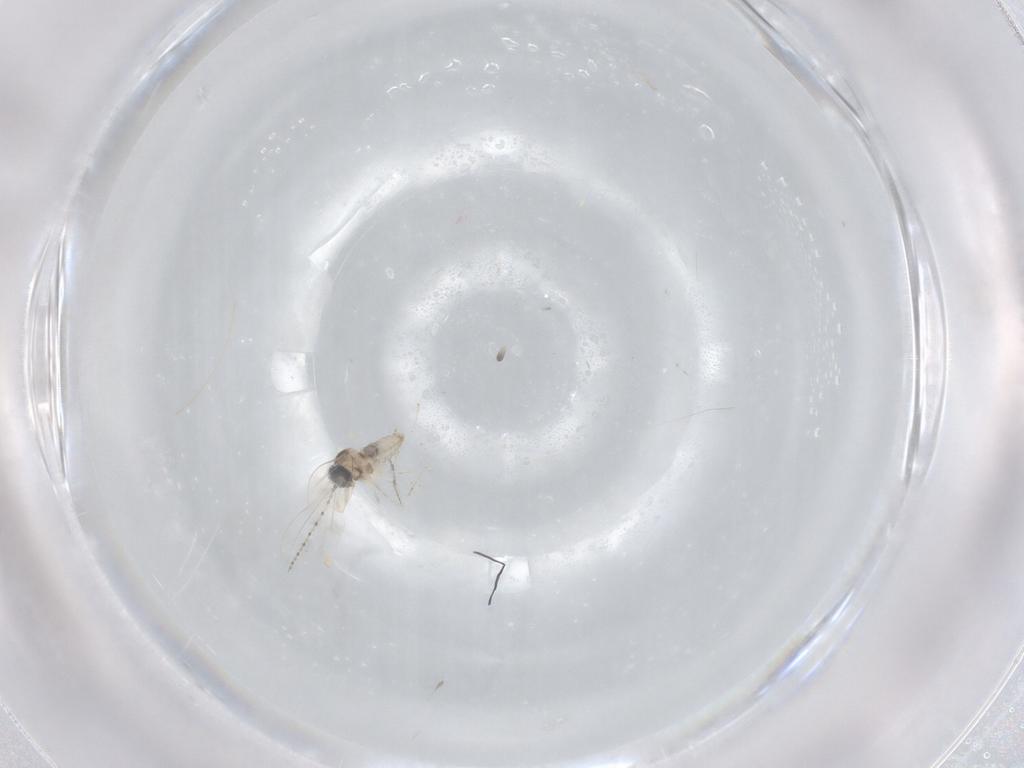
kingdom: Animalia
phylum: Arthropoda
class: Insecta
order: Diptera
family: Cecidomyiidae
